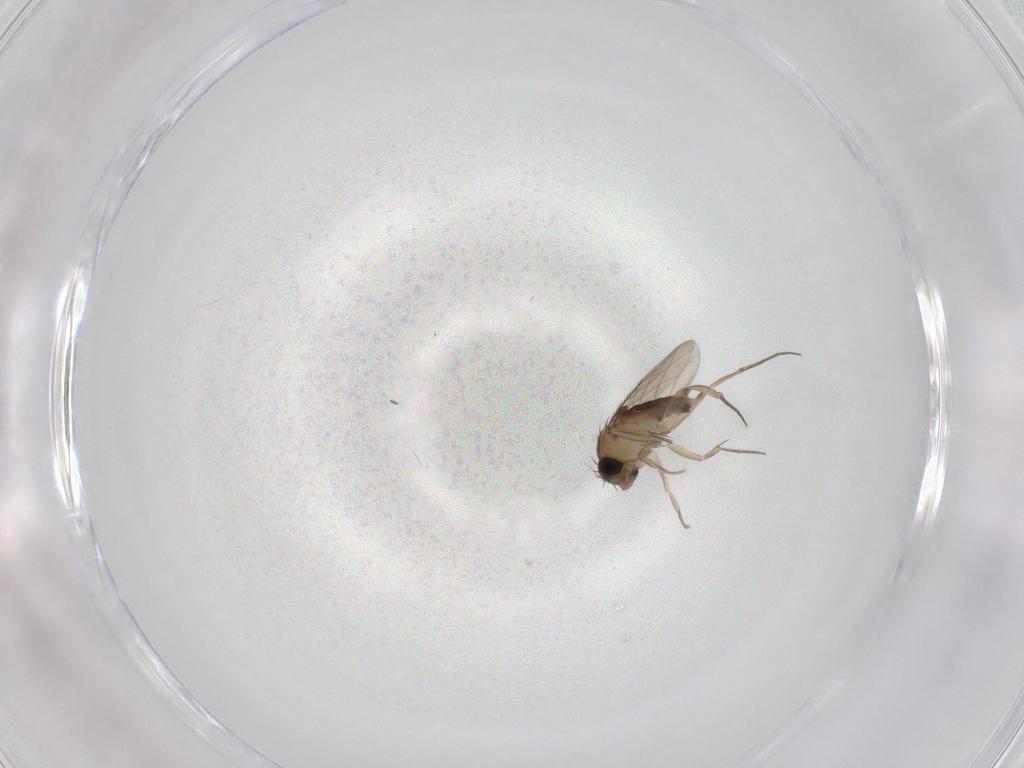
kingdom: Animalia
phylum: Arthropoda
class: Insecta
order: Diptera
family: Phoridae
